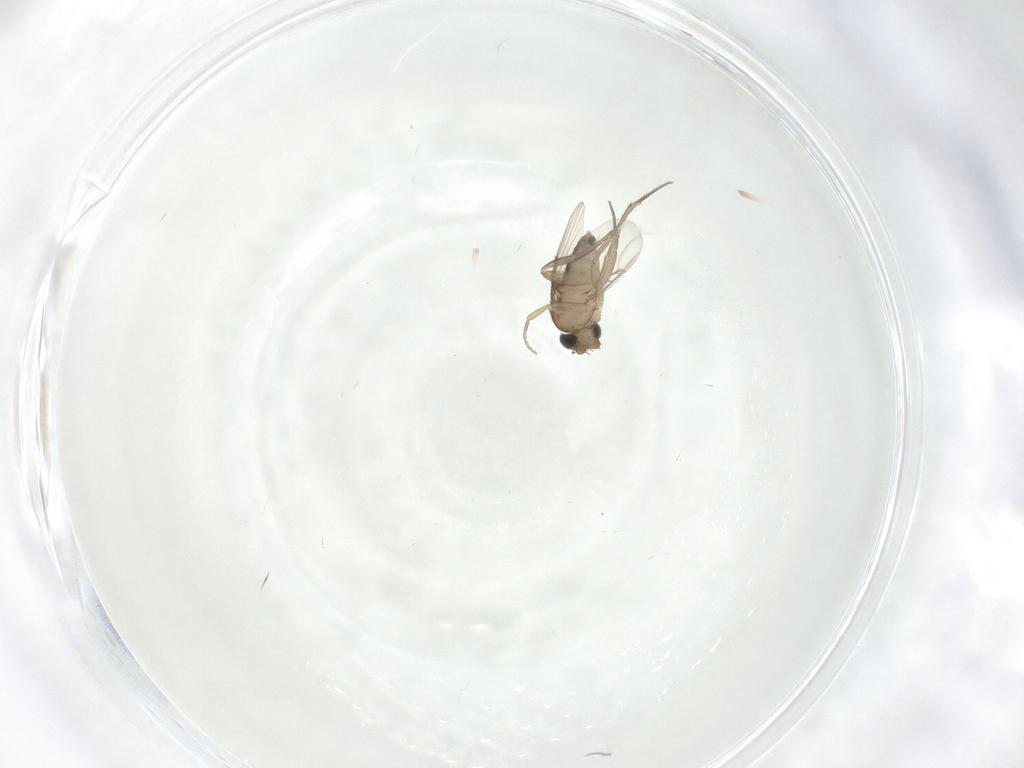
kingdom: Animalia
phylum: Arthropoda
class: Insecta
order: Diptera
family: Phoridae
